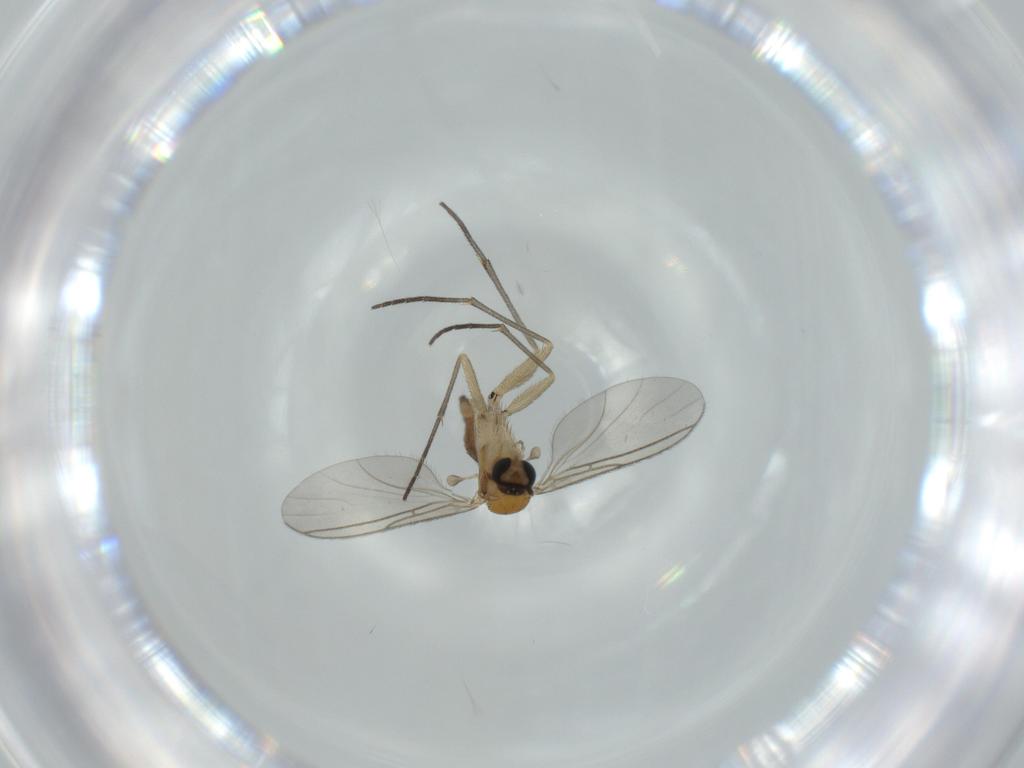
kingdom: Animalia
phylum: Arthropoda
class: Insecta
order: Diptera
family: Sciaridae
